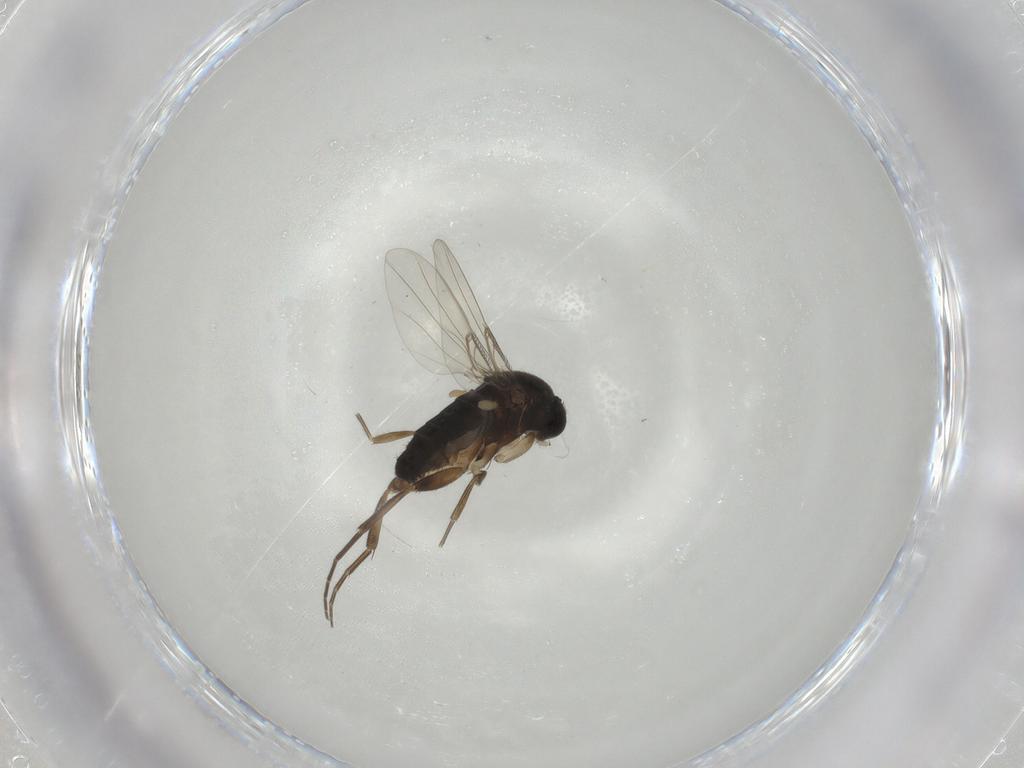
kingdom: Animalia
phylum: Arthropoda
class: Insecta
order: Diptera
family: Phoridae
